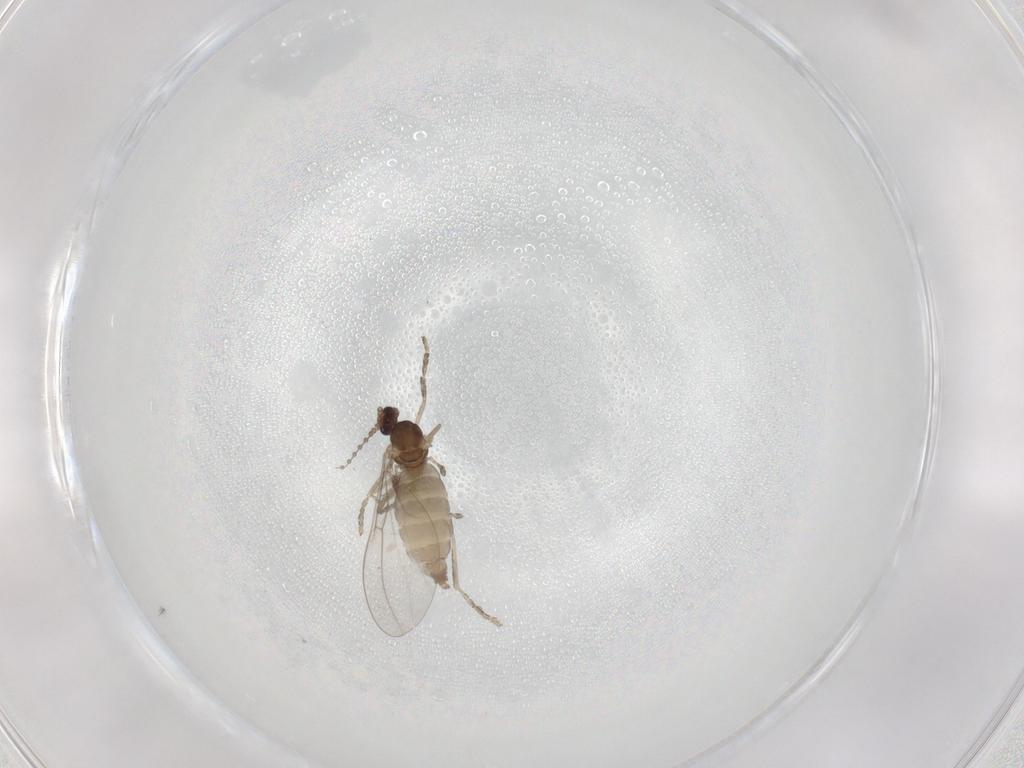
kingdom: Animalia
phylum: Arthropoda
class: Insecta
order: Diptera
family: Cecidomyiidae
